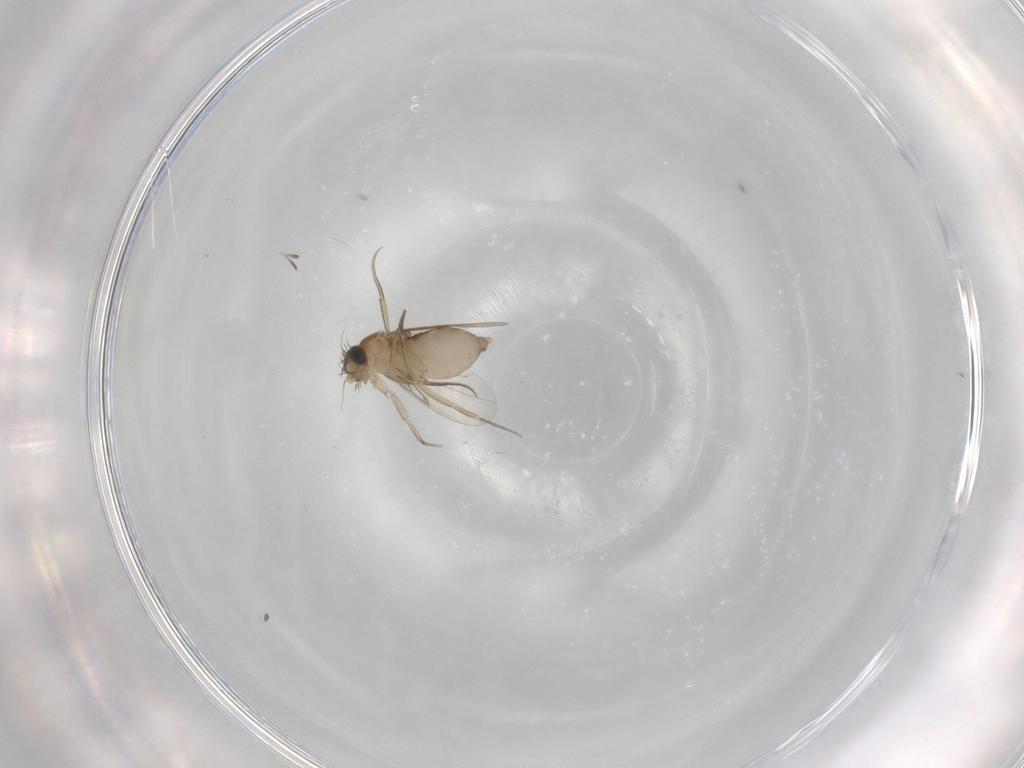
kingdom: Animalia
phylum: Arthropoda
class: Insecta
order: Diptera
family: Phoridae
